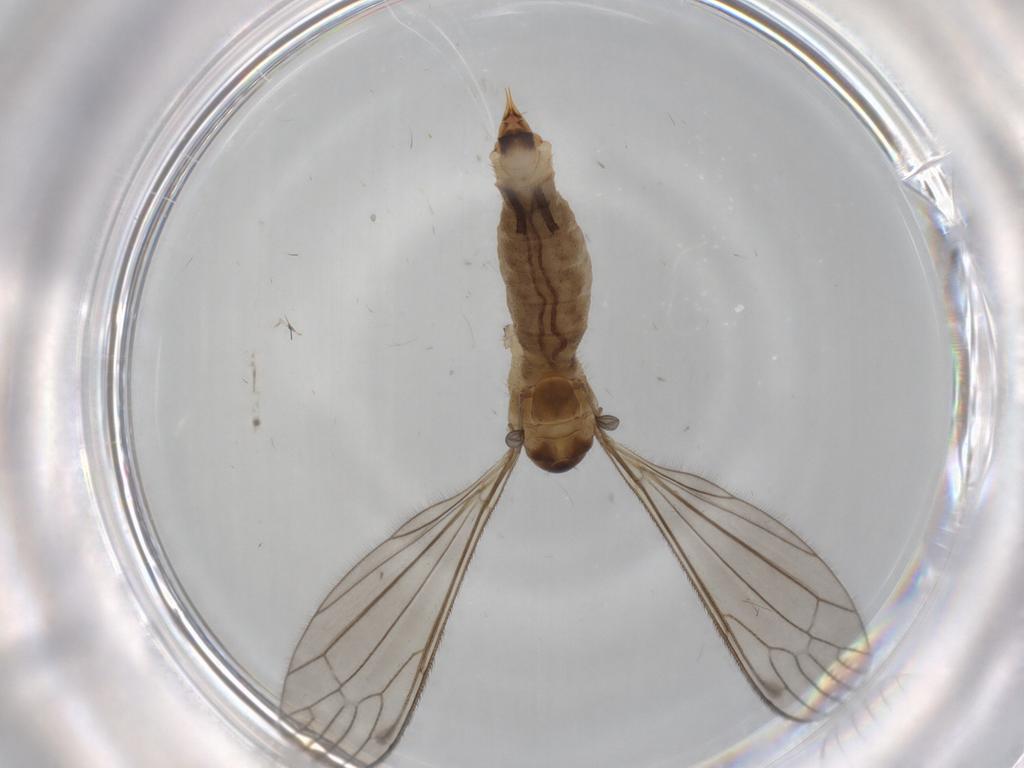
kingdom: Animalia
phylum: Arthropoda
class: Insecta
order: Diptera
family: Limoniidae
